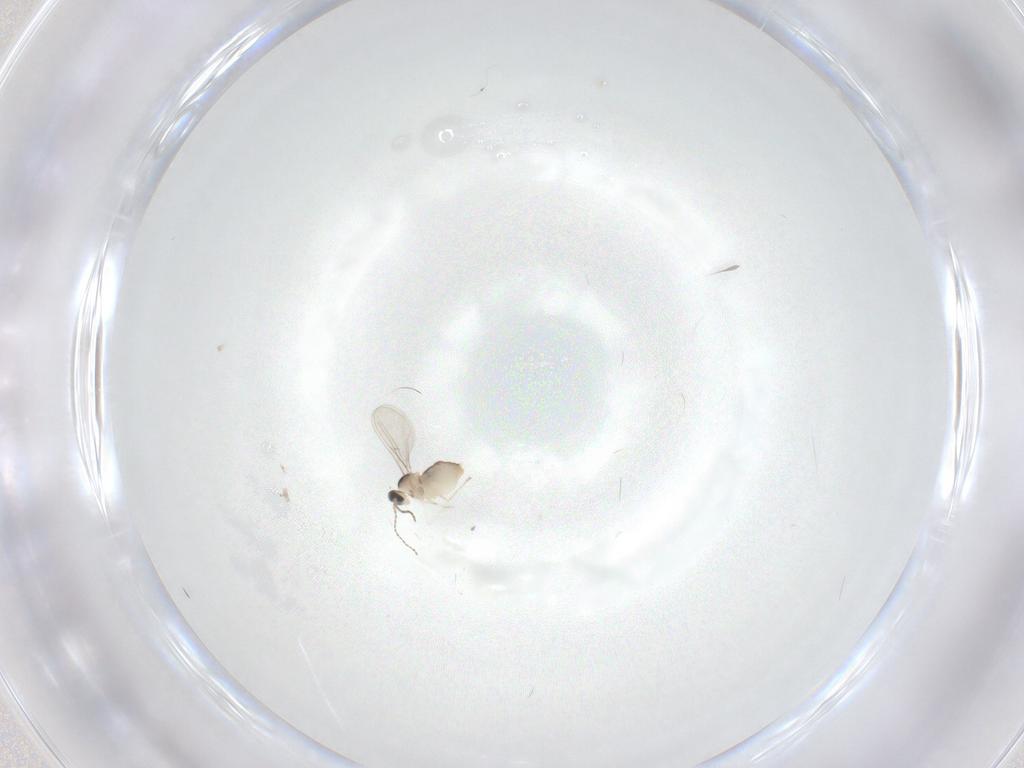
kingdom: Animalia
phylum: Arthropoda
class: Insecta
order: Diptera
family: Cecidomyiidae
